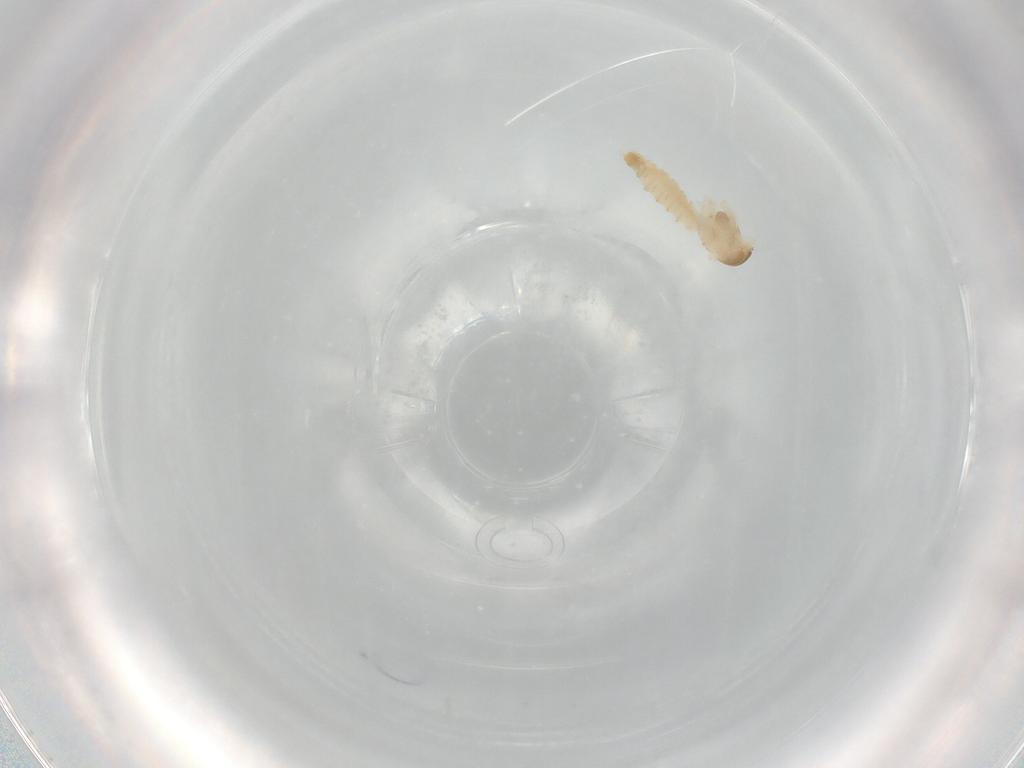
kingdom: Animalia
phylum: Arthropoda
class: Insecta
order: Diptera
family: Cecidomyiidae
